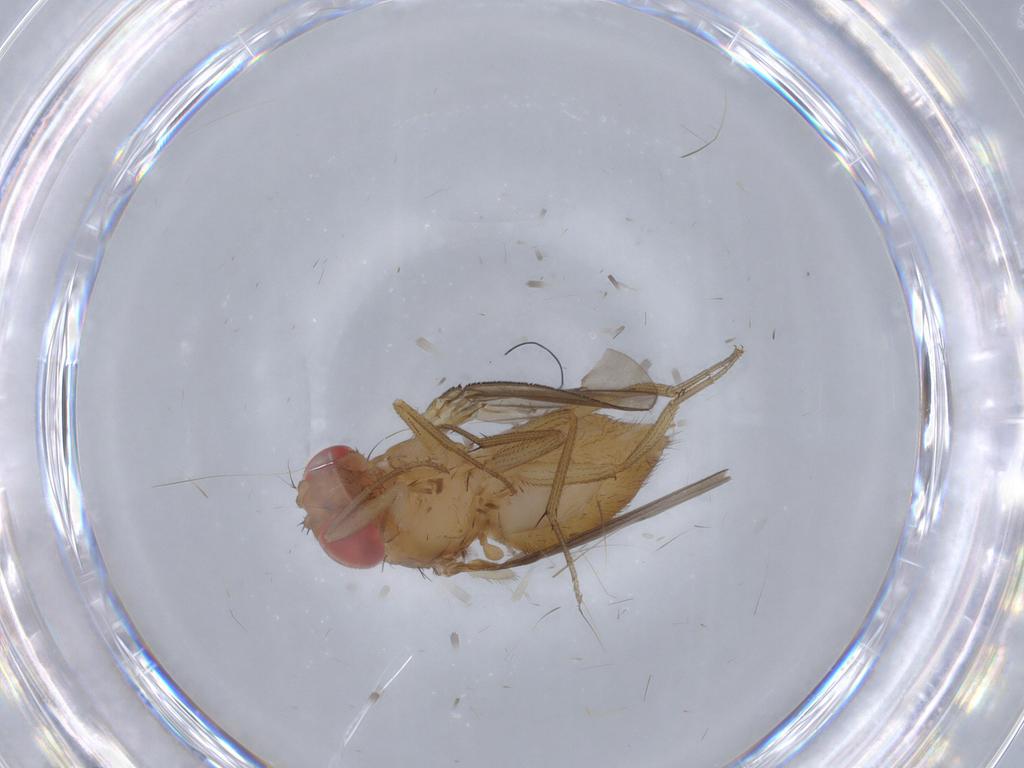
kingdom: Animalia
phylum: Arthropoda
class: Insecta
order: Diptera
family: Drosophilidae
